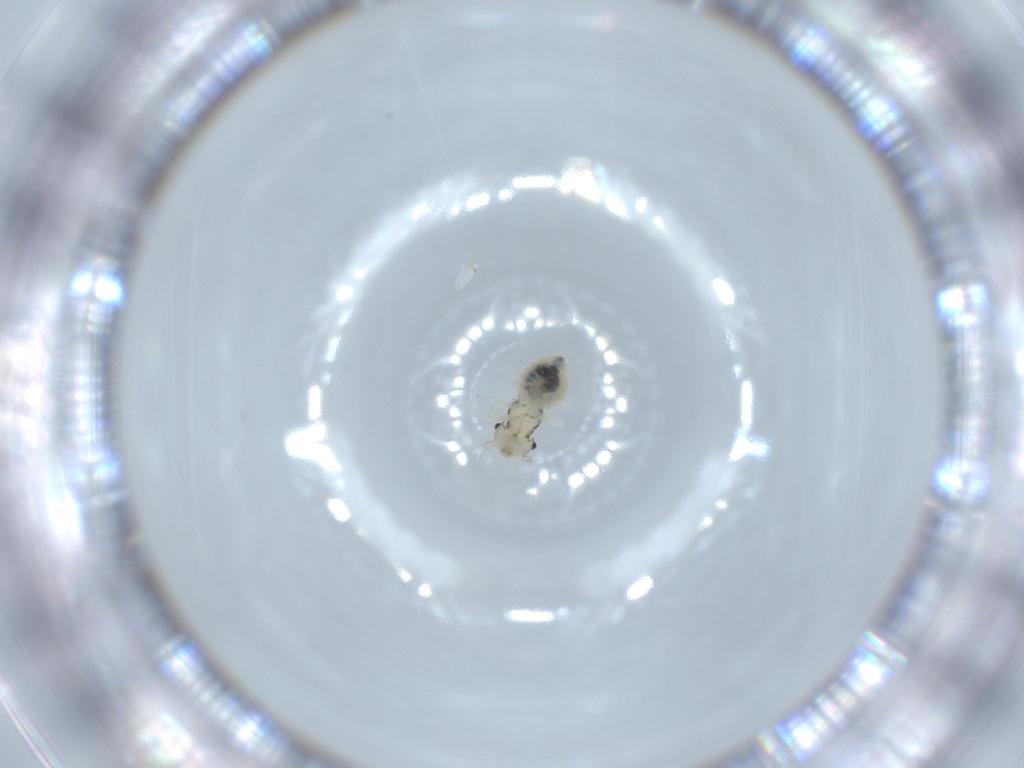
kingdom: Animalia
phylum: Arthropoda
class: Insecta
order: Psocodea
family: Caeciliusidae
